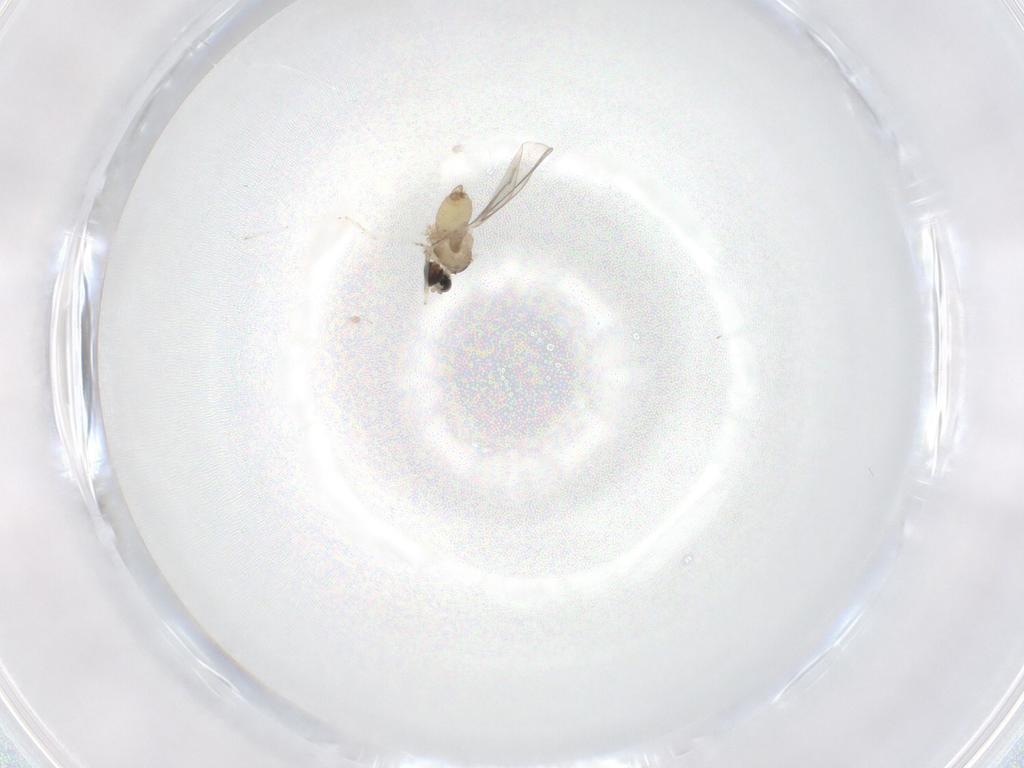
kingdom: Animalia
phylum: Arthropoda
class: Insecta
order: Diptera
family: Cecidomyiidae
